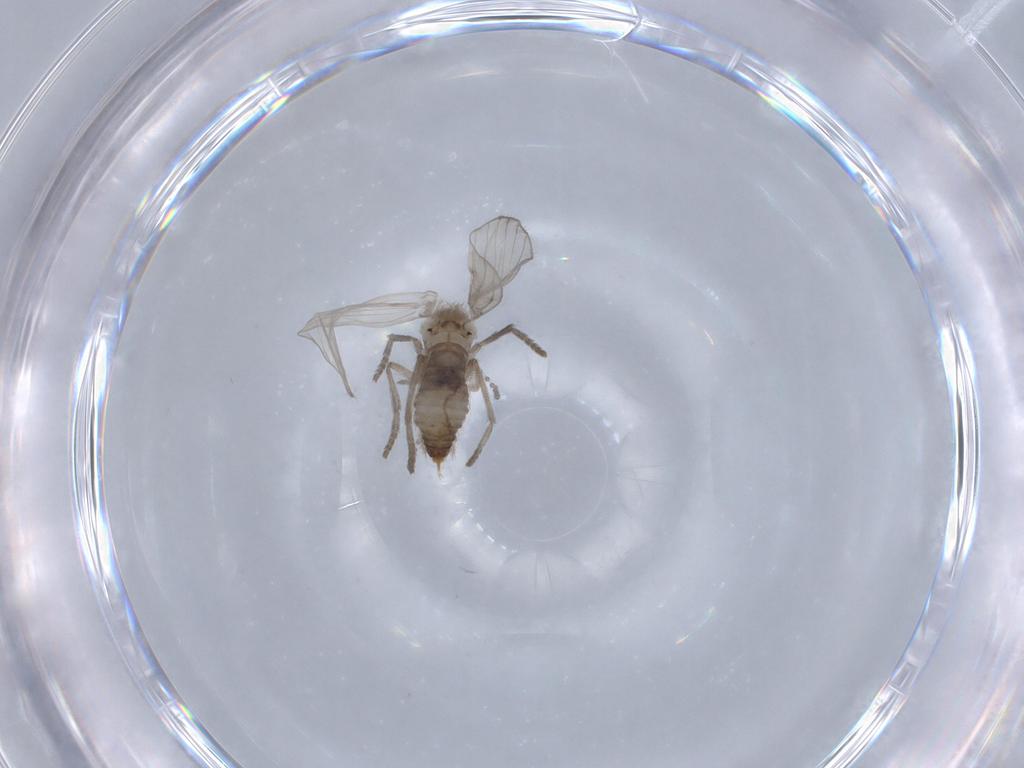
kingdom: Animalia
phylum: Arthropoda
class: Insecta
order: Diptera
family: Psychodidae
